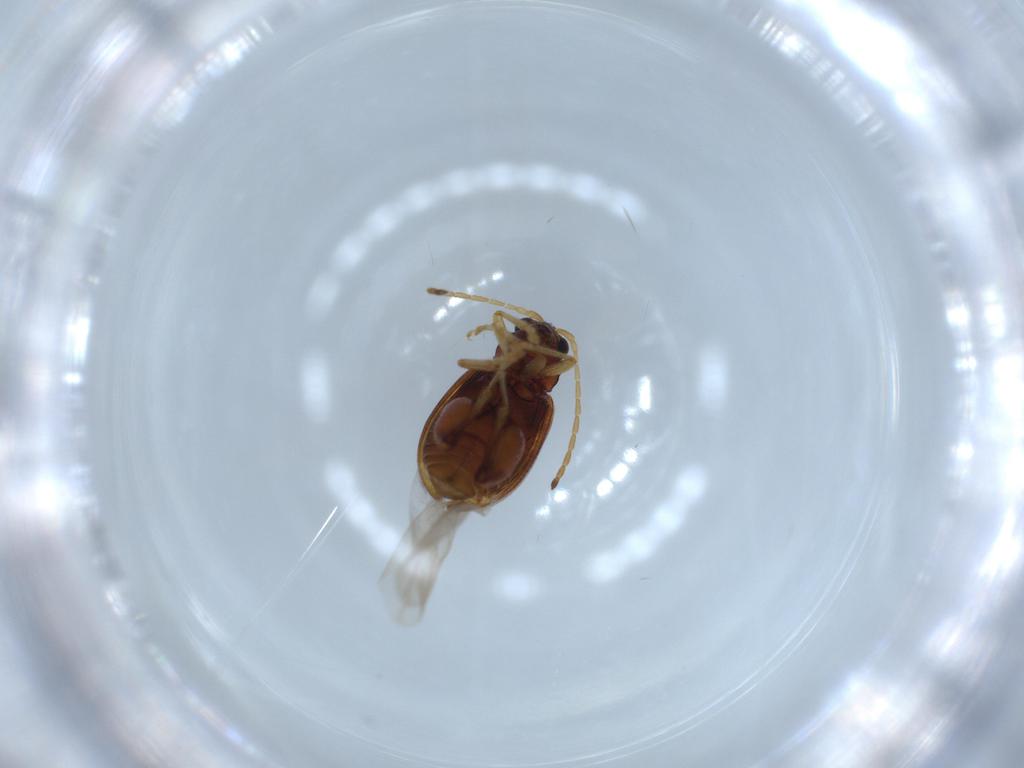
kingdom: Animalia
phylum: Arthropoda
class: Insecta
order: Coleoptera
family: Chrysomelidae
